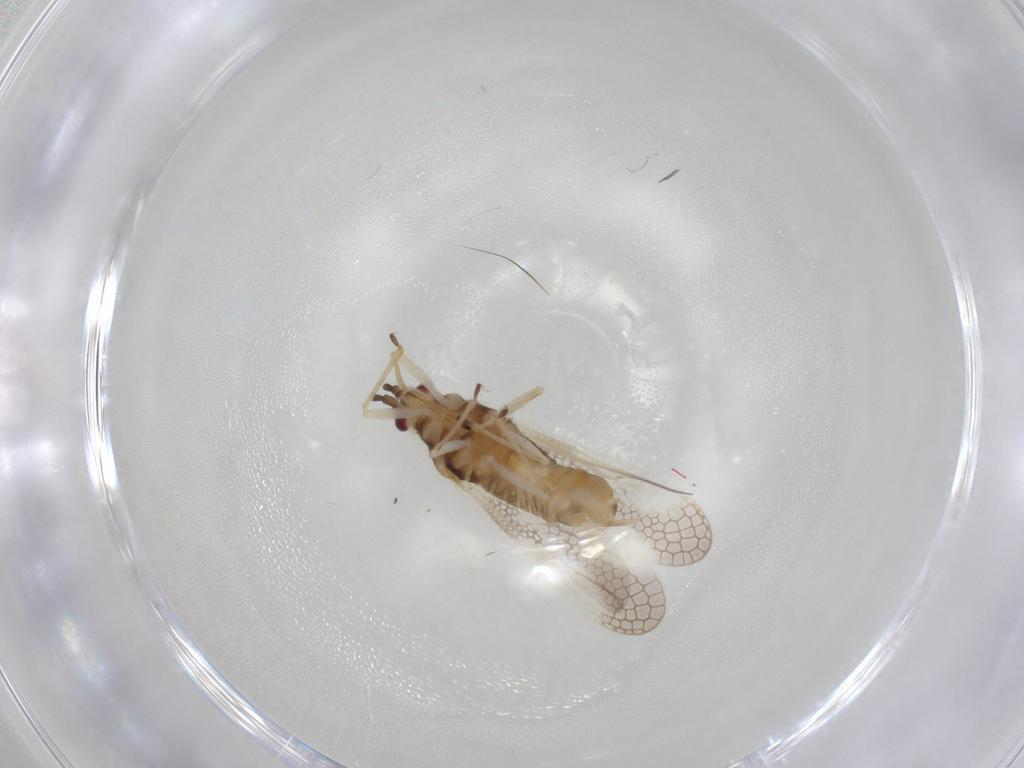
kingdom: Animalia
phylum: Arthropoda
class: Insecta
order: Hemiptera
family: Tingidae
